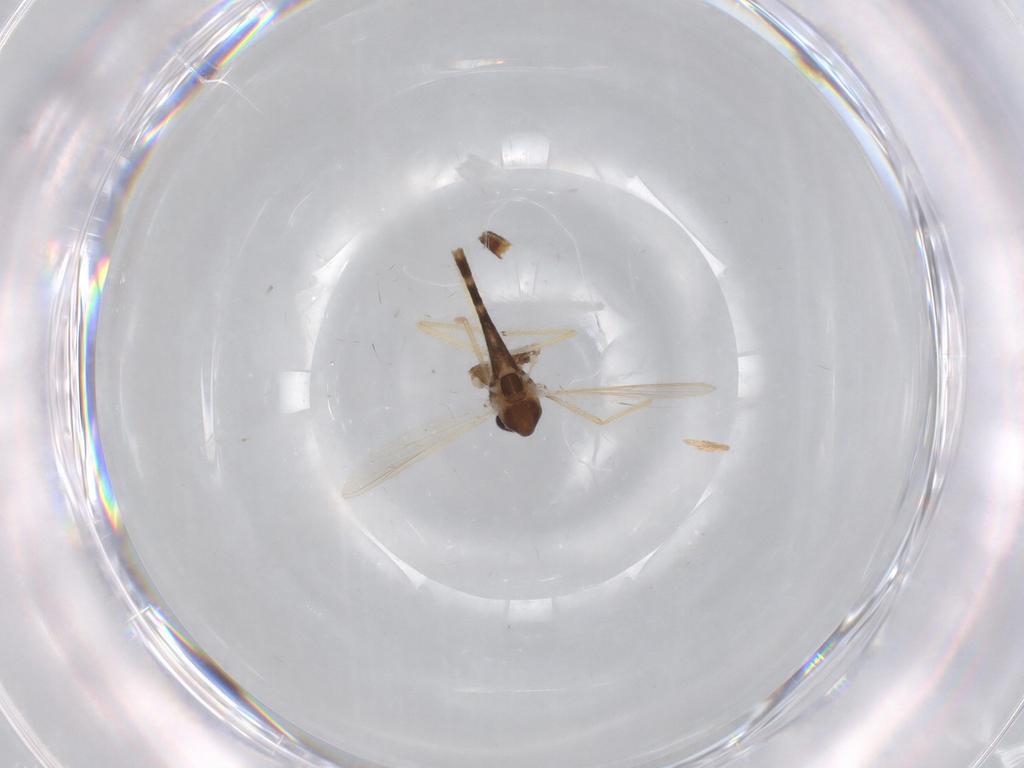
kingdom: Animalia
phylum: Arthropoda
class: Insecta
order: Diptera
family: Chironomidae
